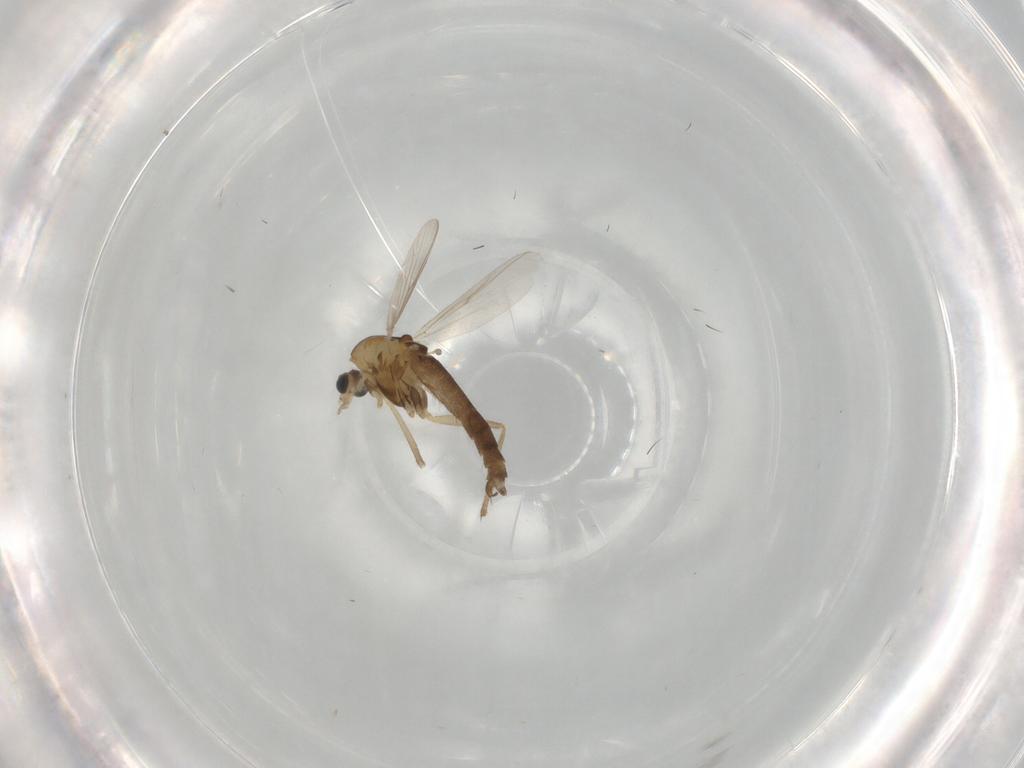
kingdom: Animalia
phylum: Arthropoda
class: Insecta
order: Diptera
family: Chironomidae
